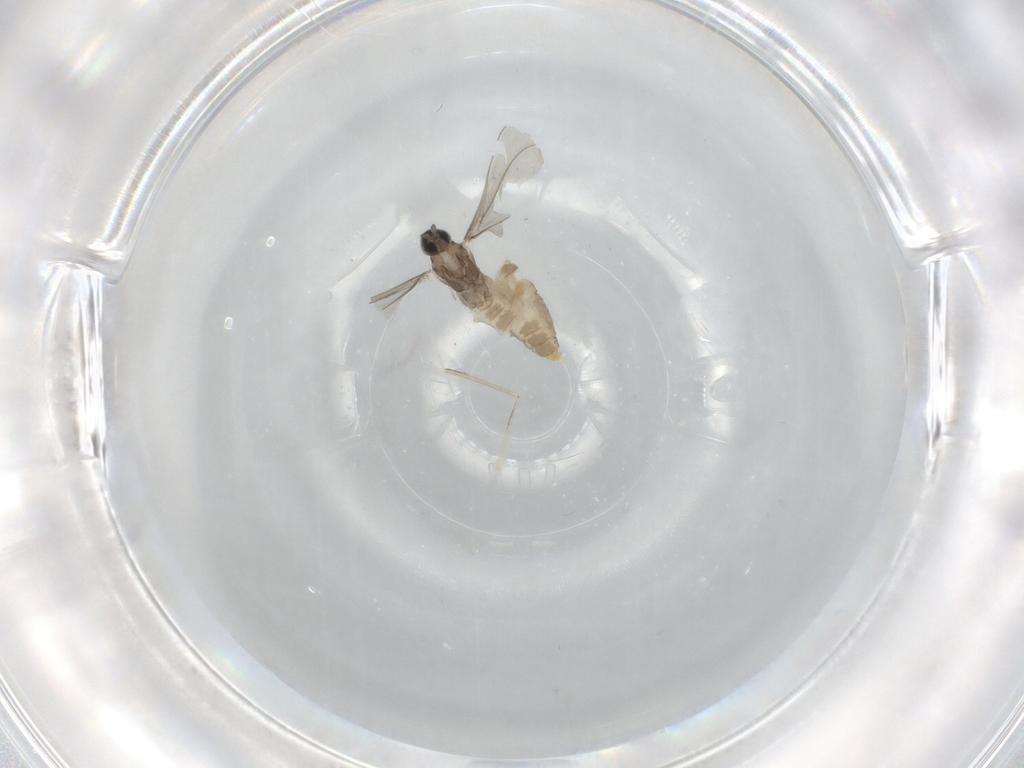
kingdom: Animalia
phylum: Arthropoda
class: Insecta
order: Diptera
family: Cecidomyiidae
